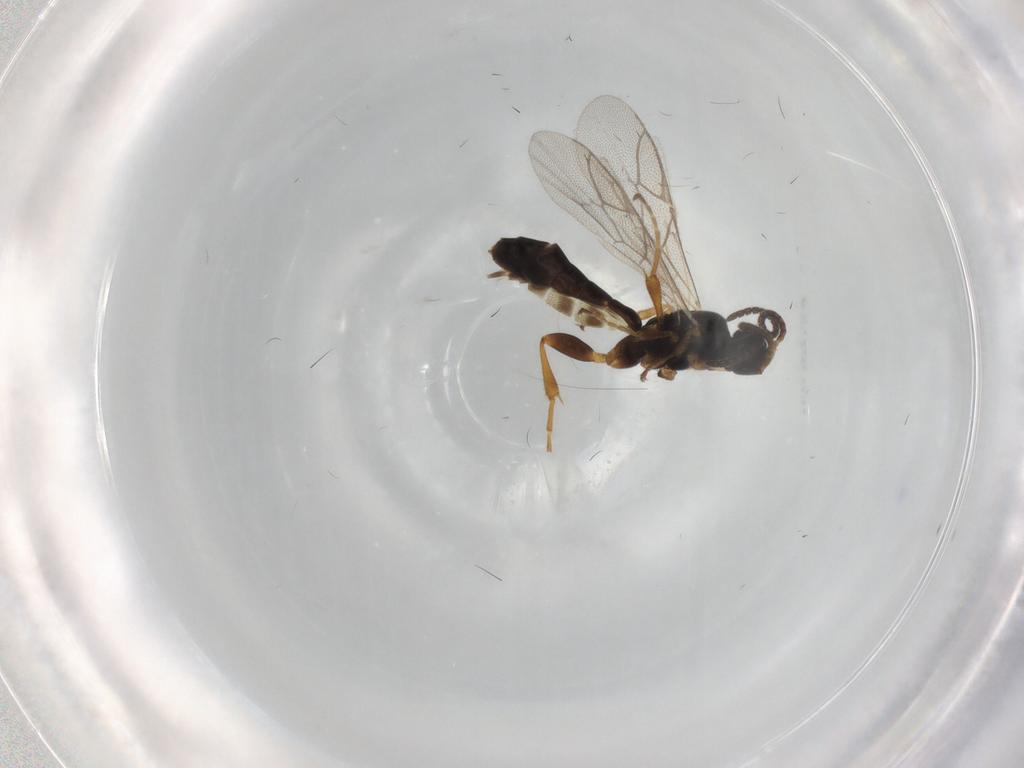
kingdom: Animalia
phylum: Arthropoda
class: Insecta
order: Hymenoptera
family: Ichneumonidae
